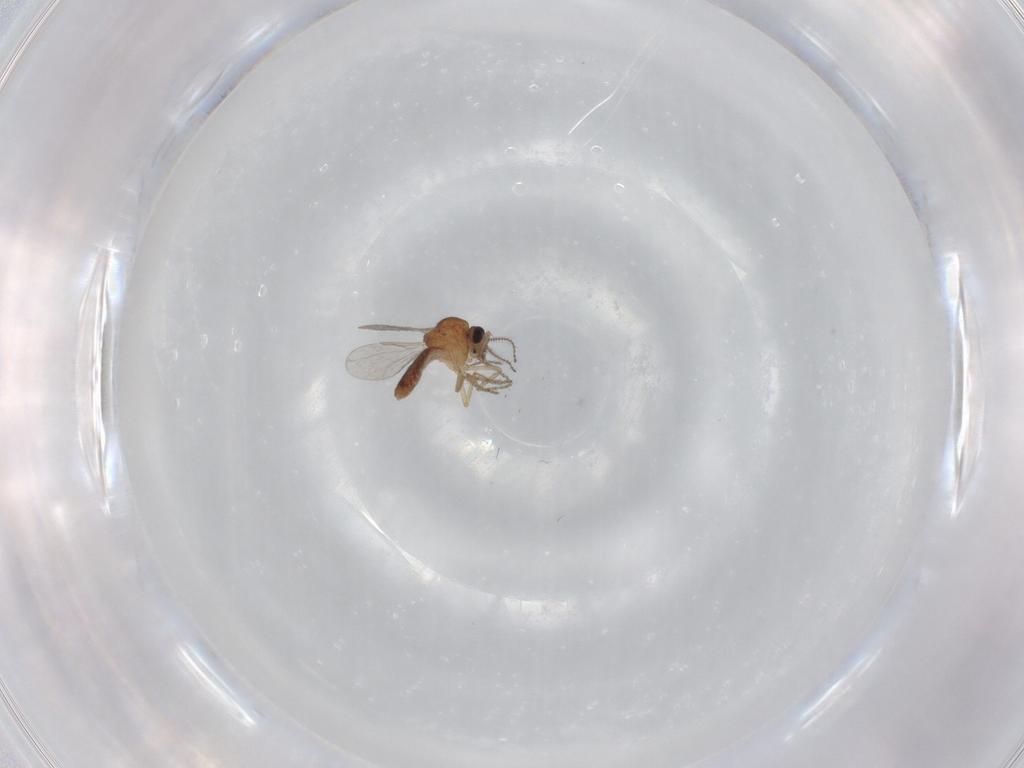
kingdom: Animalia
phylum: Arthropoda
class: Insecta
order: Diptera
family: Ceratopogonidae
